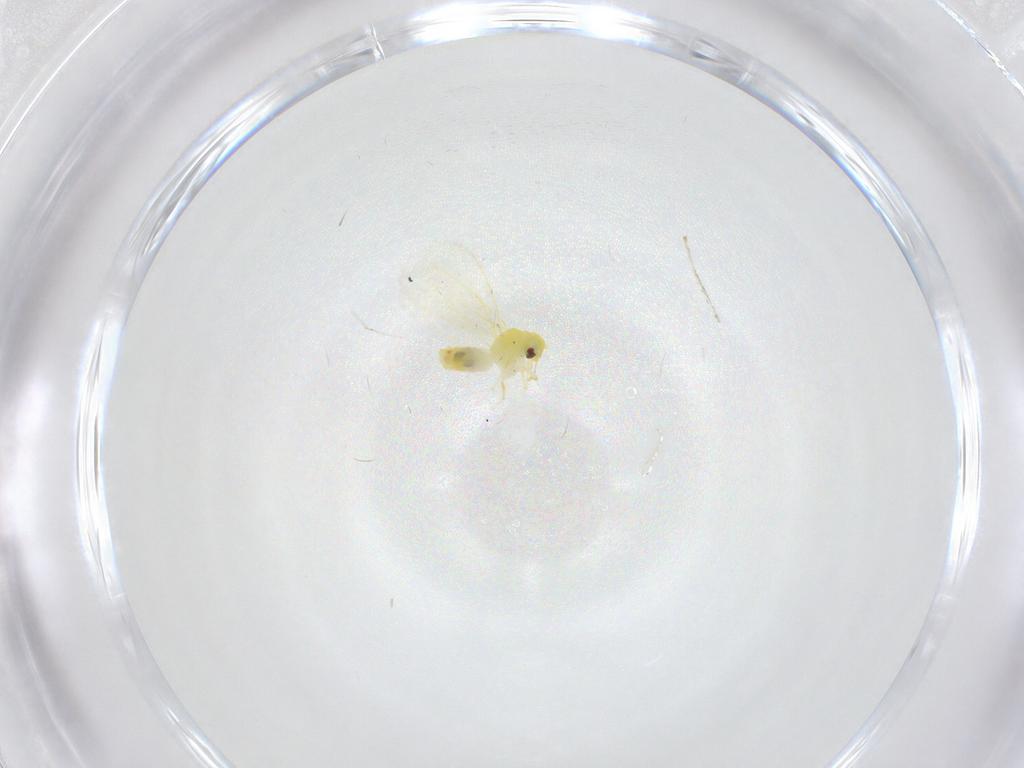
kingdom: Animalia
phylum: Arthropoda
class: Insecta
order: Hemiptera
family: Aleyrodidae
